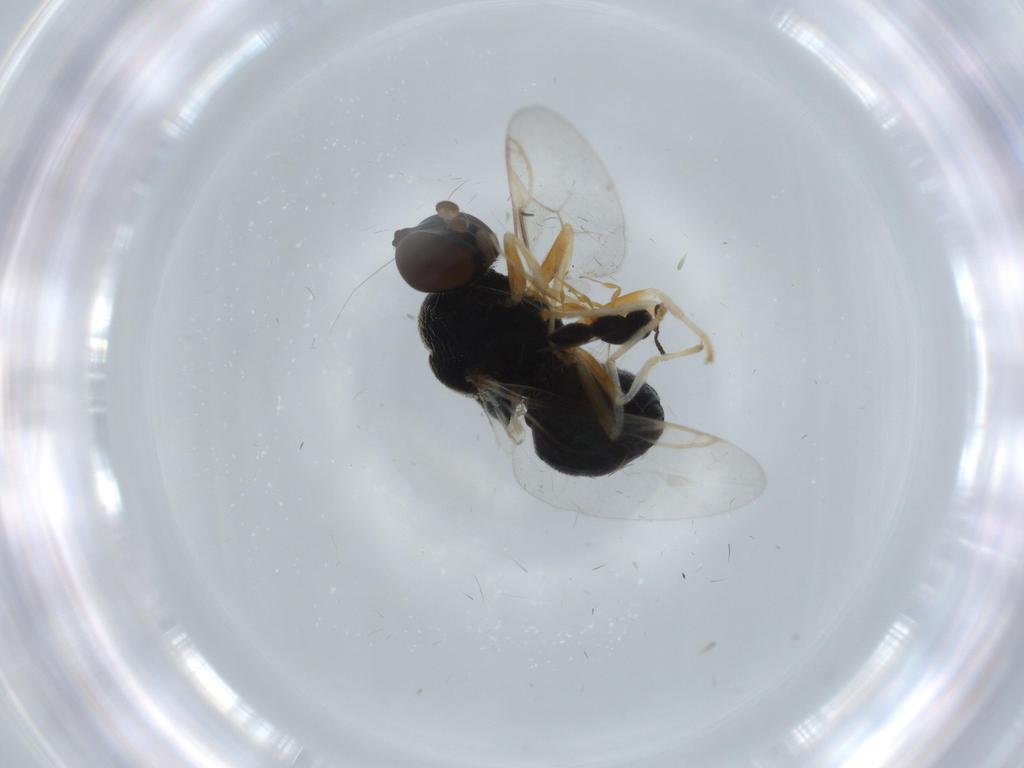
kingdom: Animalia
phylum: Arthropoda
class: Insecta
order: Diptera
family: Stratiomyidae
